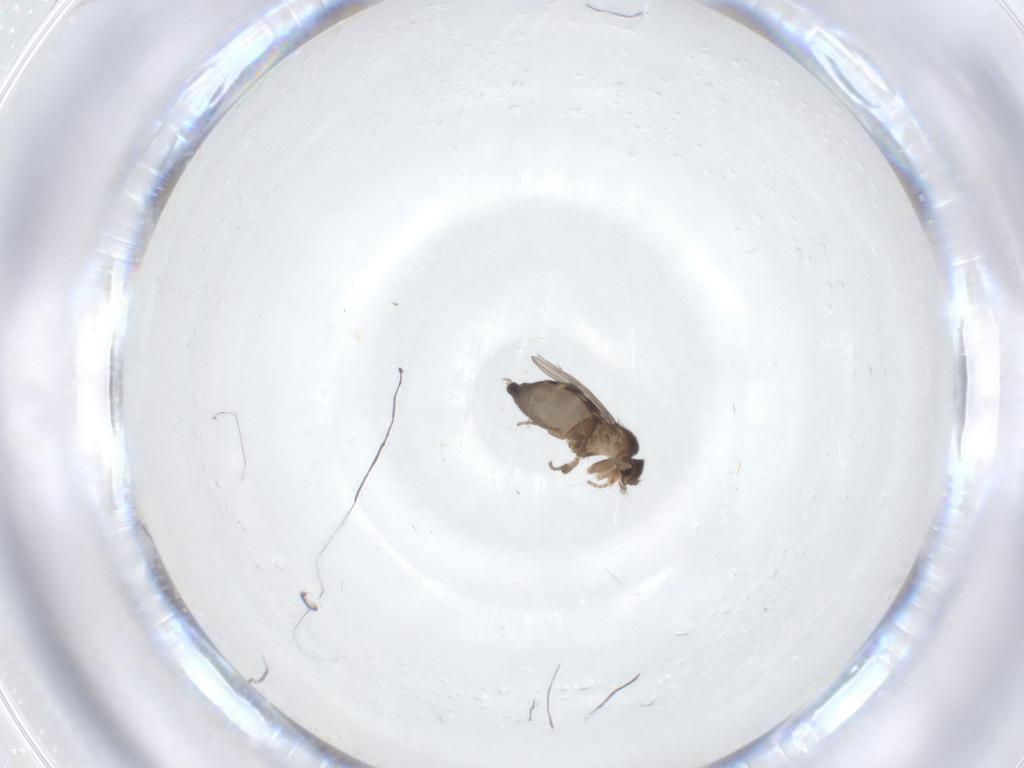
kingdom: Animalia
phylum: Arthropoda
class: Insecta
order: Diptera
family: Phoridae
